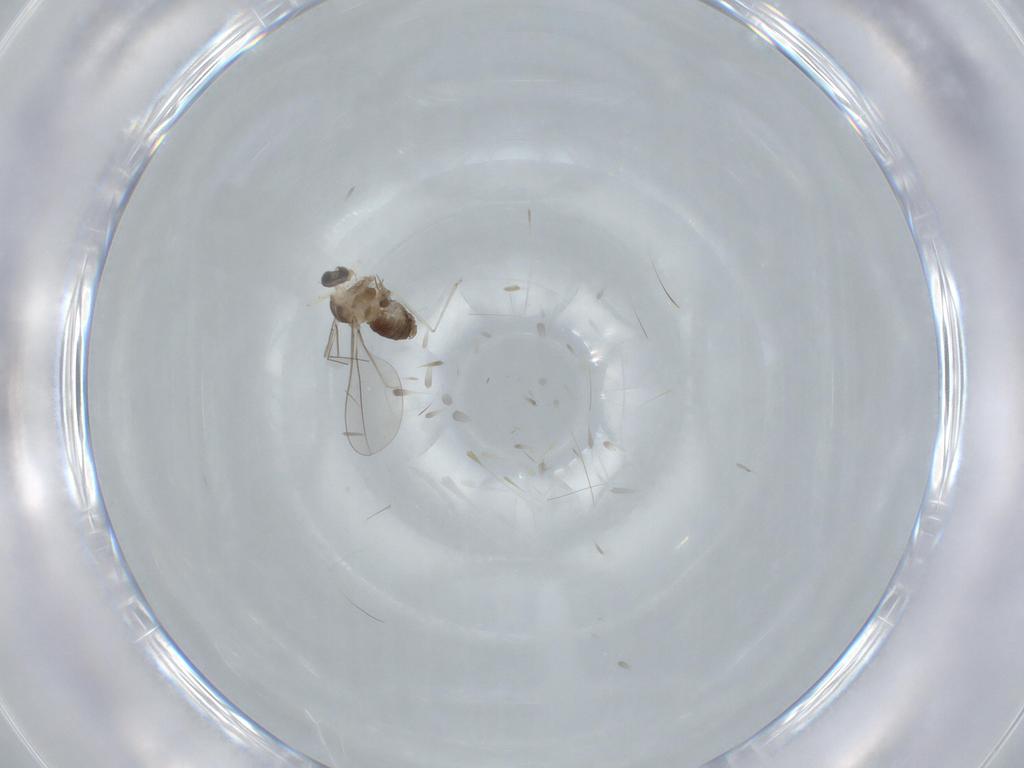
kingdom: Animalia
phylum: Arthropoda
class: Insecta
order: Diptera
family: Cecidomyiidae
